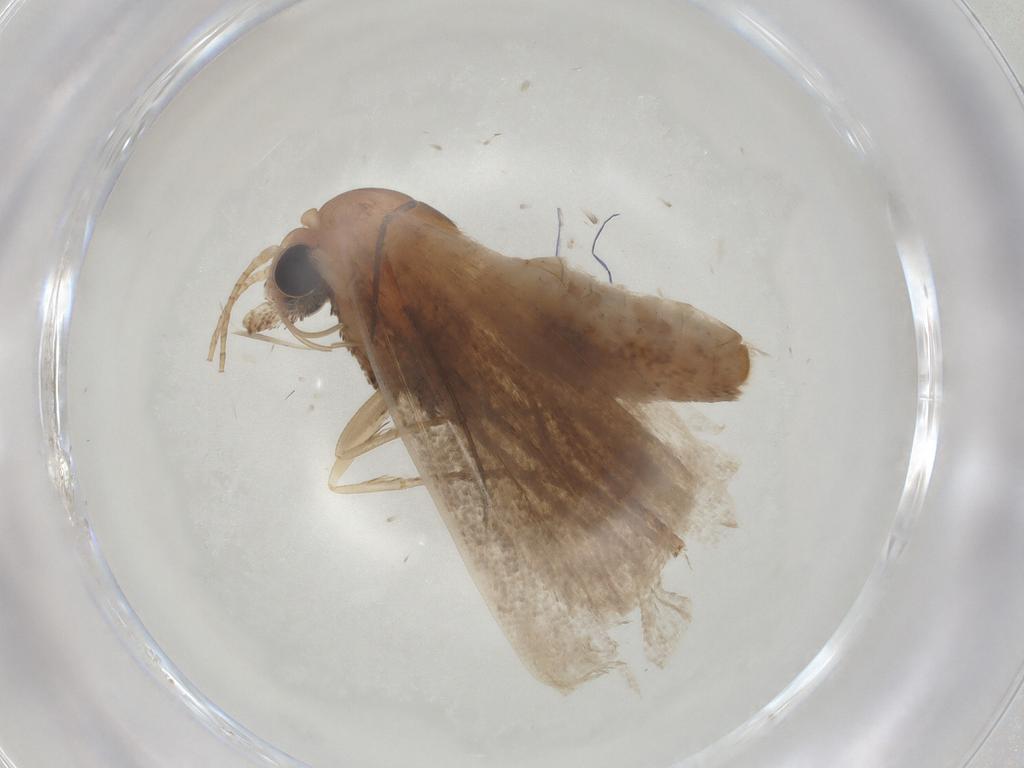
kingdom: Animalia
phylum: Arthropoda
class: Insecta
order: Lepidoptera
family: Nolidae
